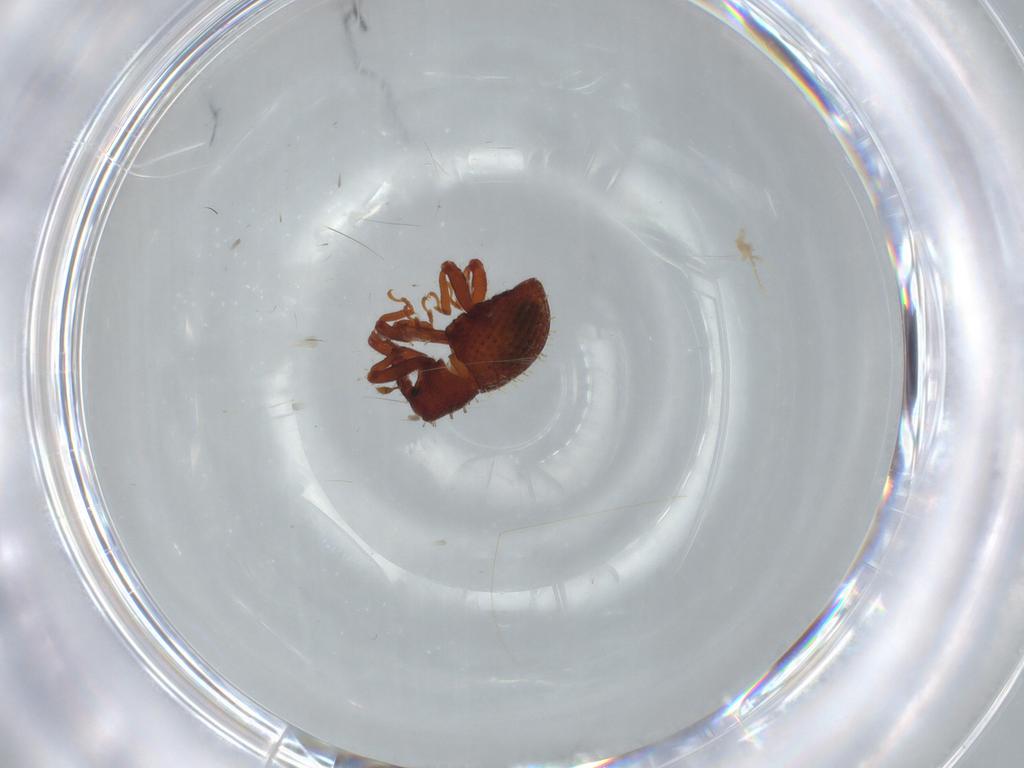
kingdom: Animalia
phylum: Arthropoda
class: Insecta
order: Coleoptera
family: Curculionidae
